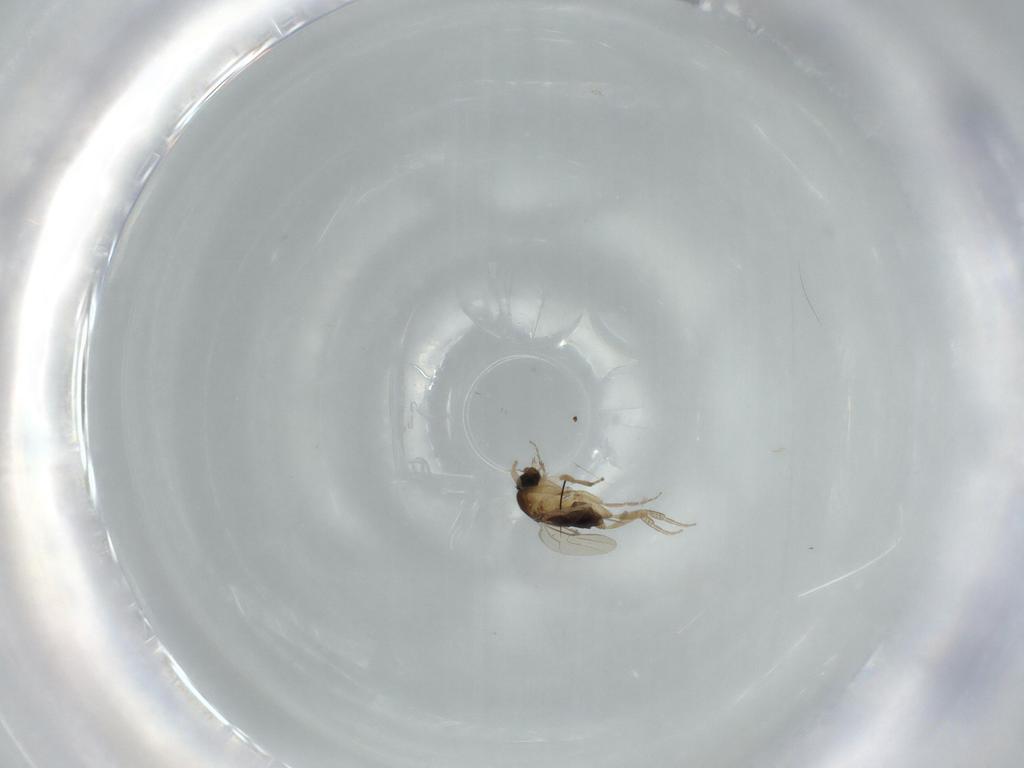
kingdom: Animalia
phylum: Arthropoda
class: Insecta
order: Diptera
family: Phoridae
